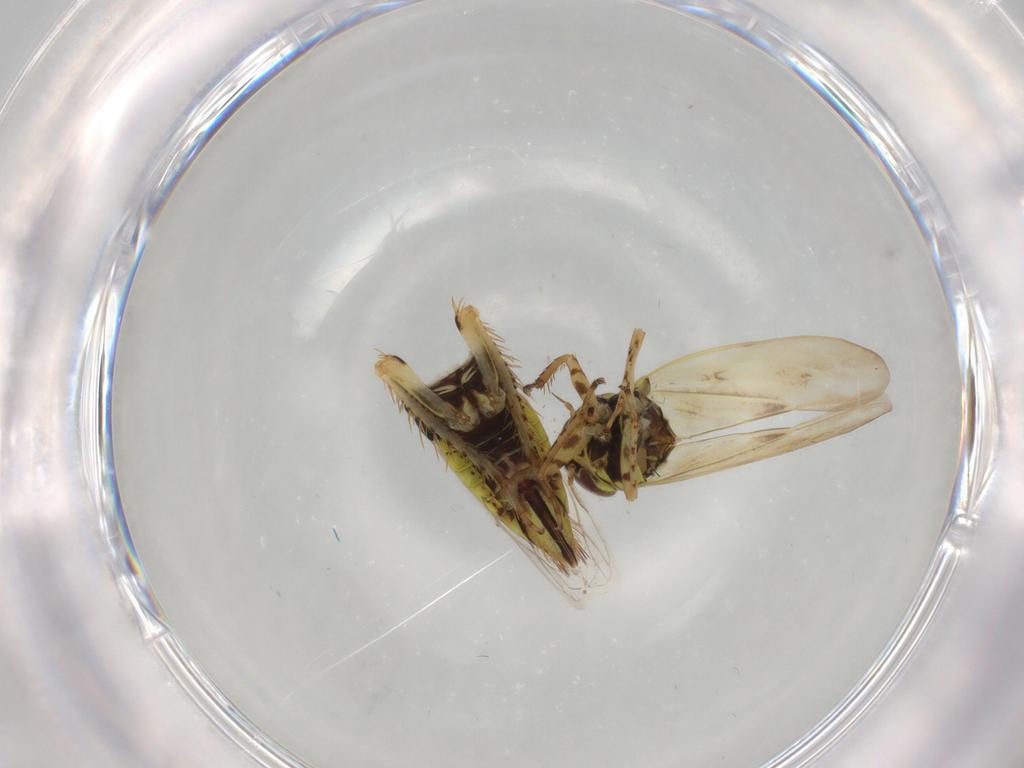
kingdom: Animalia
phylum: Arthropoda
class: Insecta
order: Hemiptera
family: Cicadellidae
